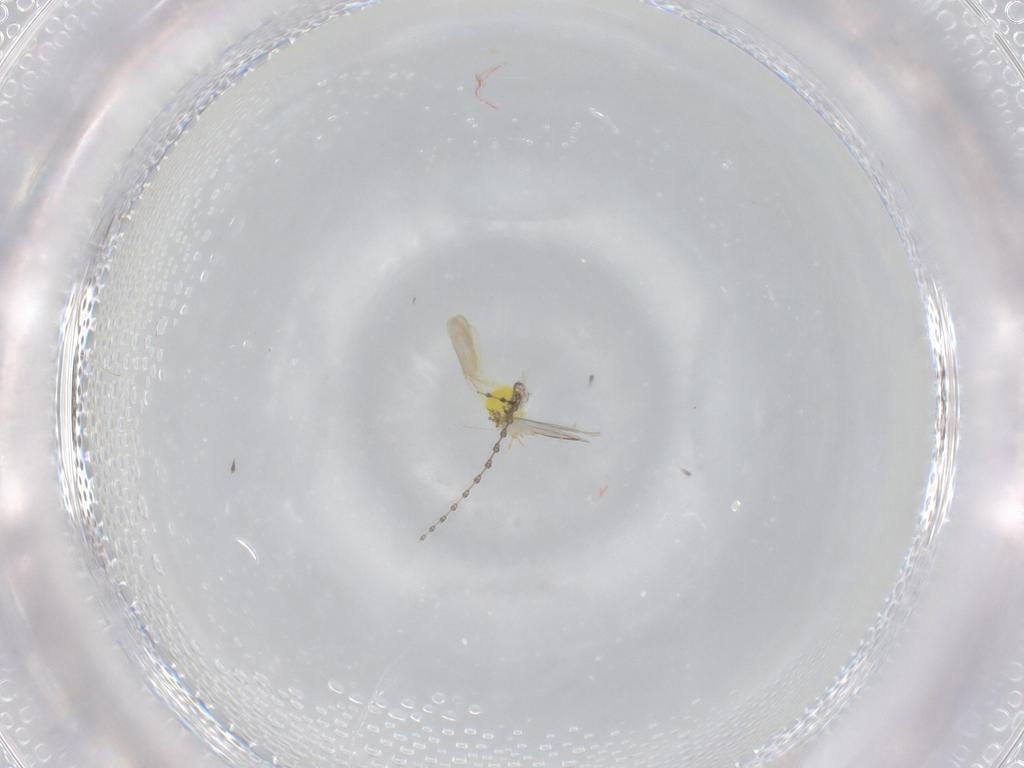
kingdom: Animalia
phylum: Arthropoda
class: Insecta
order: Hemiptera
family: Aleyrodidae
